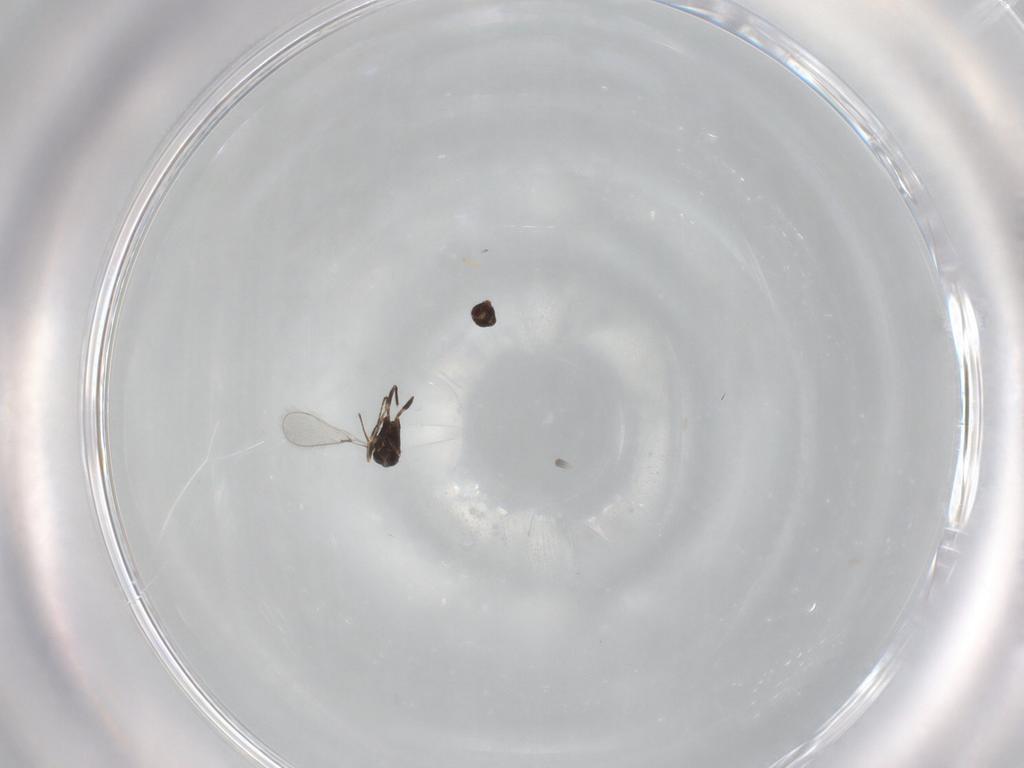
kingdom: Animalia
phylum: Arthropoda
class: Insecta
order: Hymenoptera
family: Mymaridae
